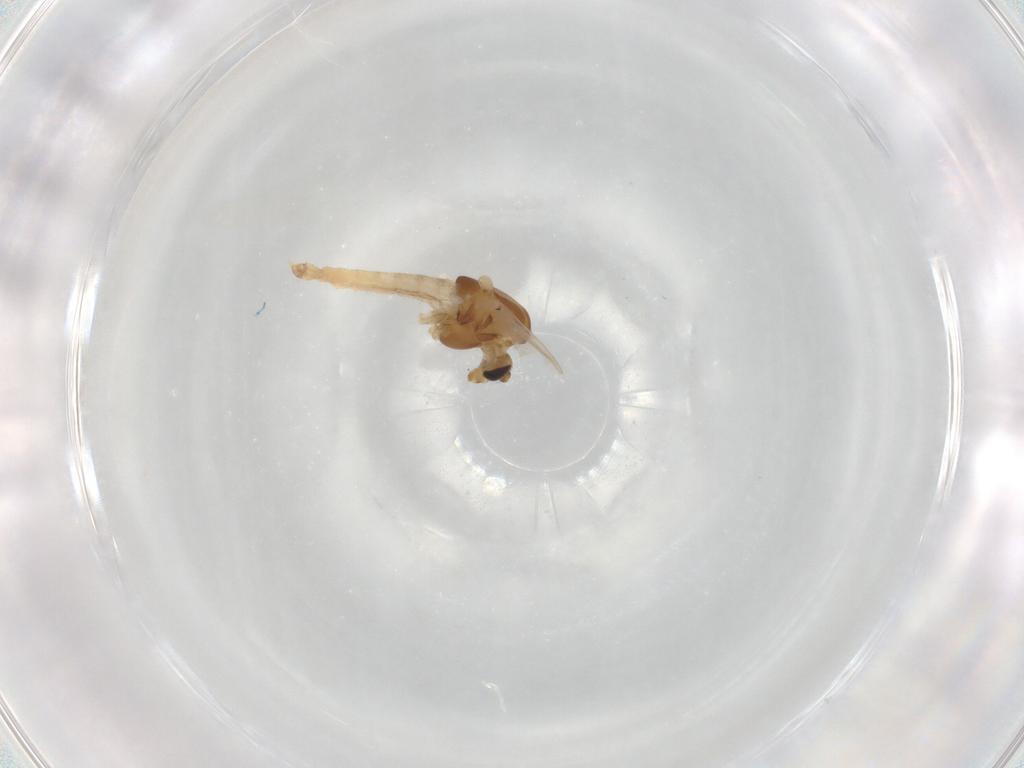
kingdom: Animalia
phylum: Arthropoda
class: Insecta
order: Diptera
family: Chironomidae
